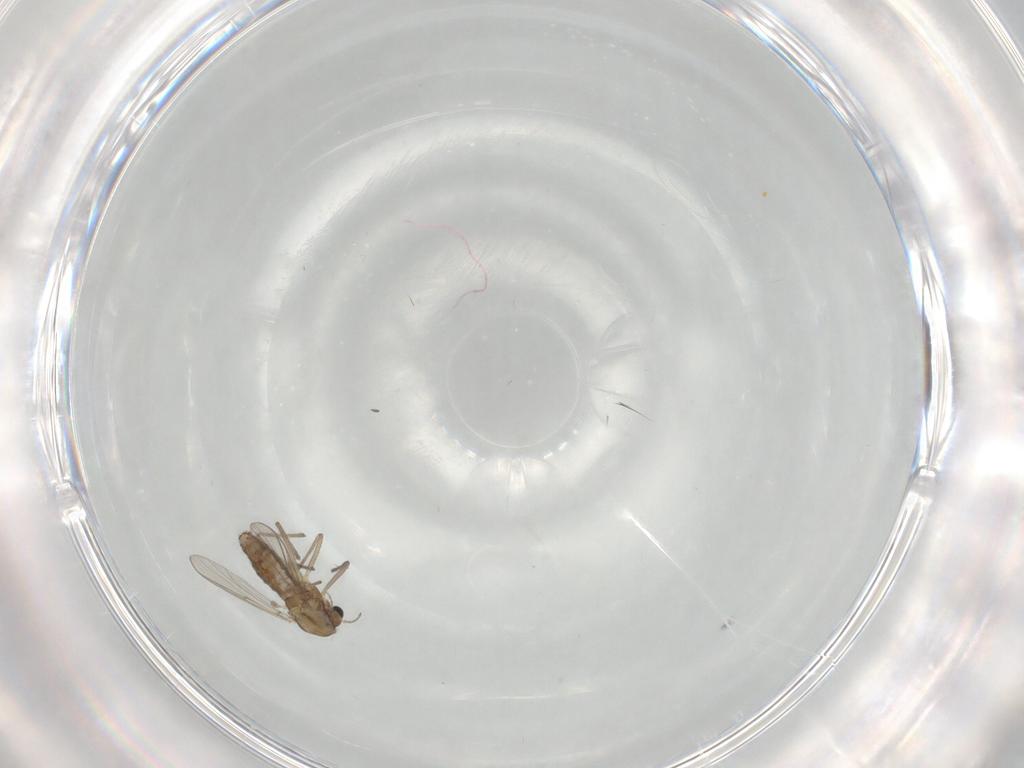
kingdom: Animalia
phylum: Arthropoda
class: Insecta
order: Diptera
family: Chironomidae
